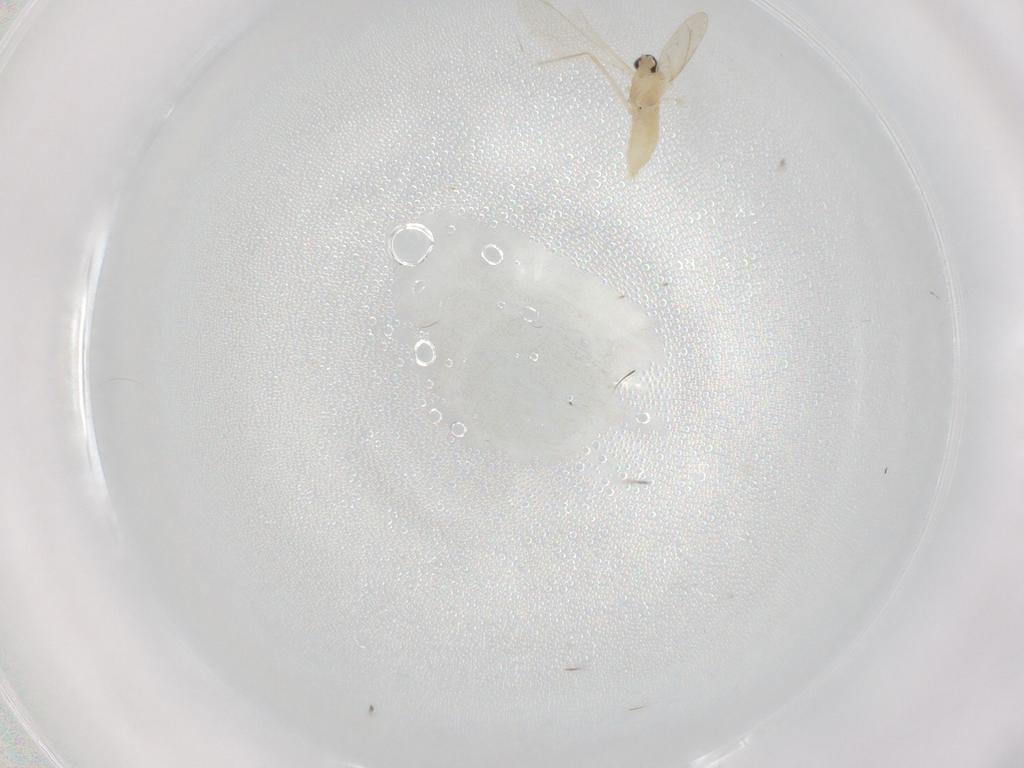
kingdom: Animalia
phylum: Arthropoda
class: Insecta
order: Diptera
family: Cecidomyiidae
